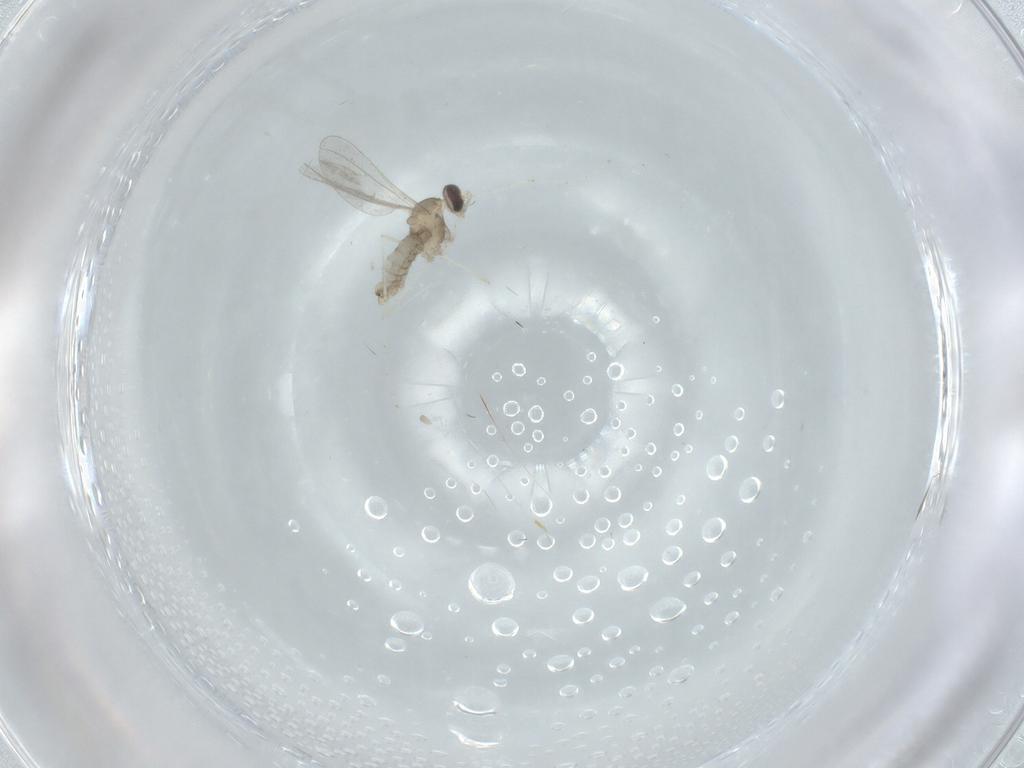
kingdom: Animalia
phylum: Arthropoda
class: Insecta
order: Diptera
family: Cecidomyiidae
